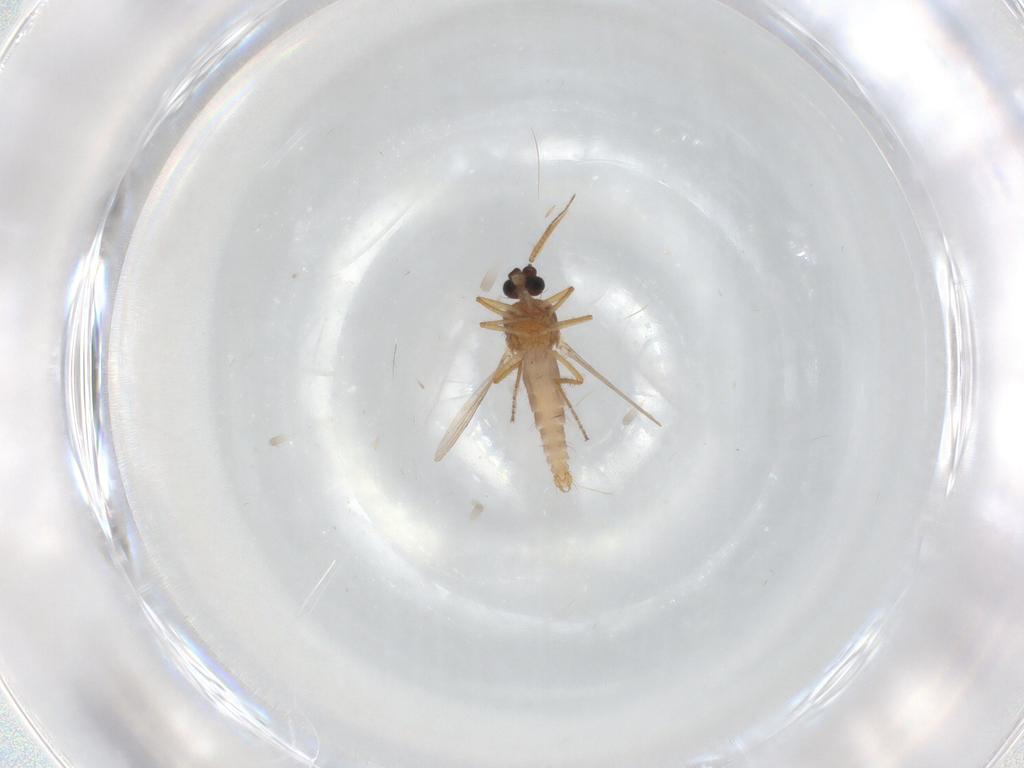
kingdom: Animalia
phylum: Arthropoda
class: Insecta
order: Diptera
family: Ceratopogonidae
